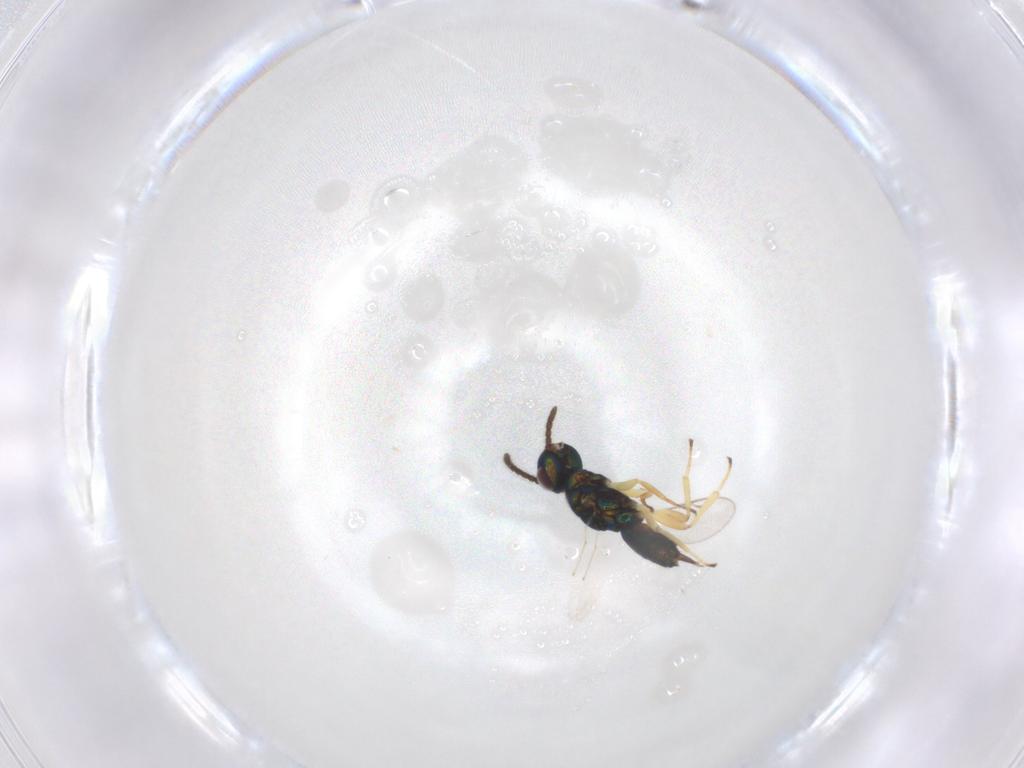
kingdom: Animalia
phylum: Arthropoda
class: Insecta
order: Hymenoptera
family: Eupelmidae
